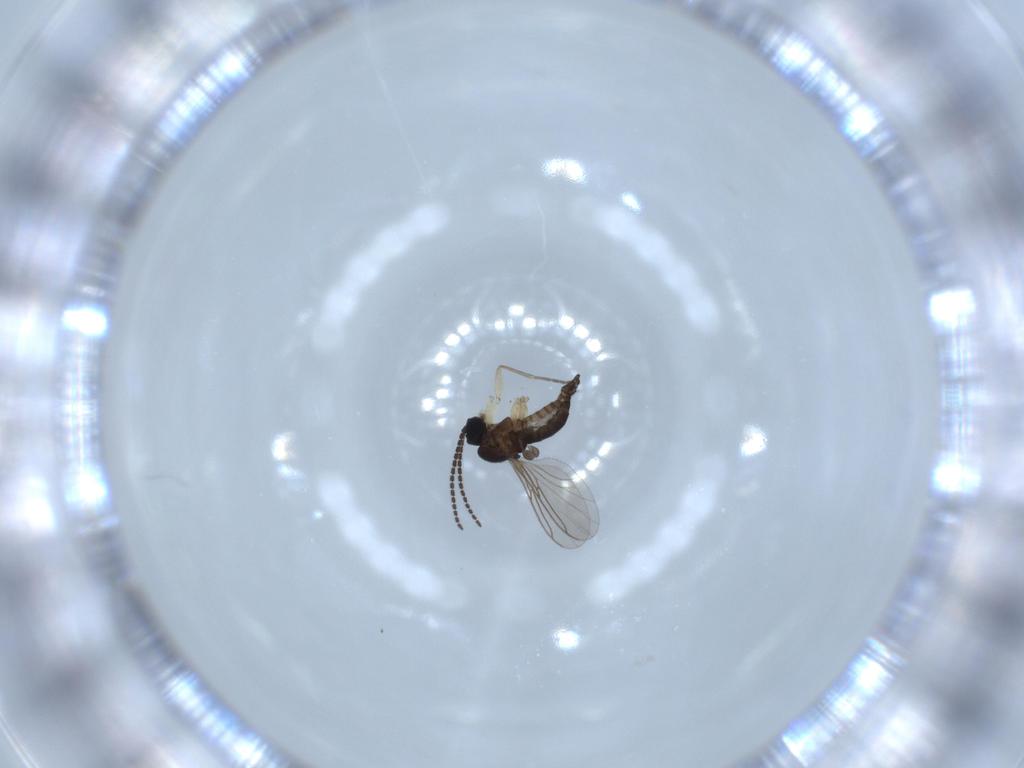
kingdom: Animalia
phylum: Arthropoda
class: Insecta
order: Diptera
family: Sciaridae
